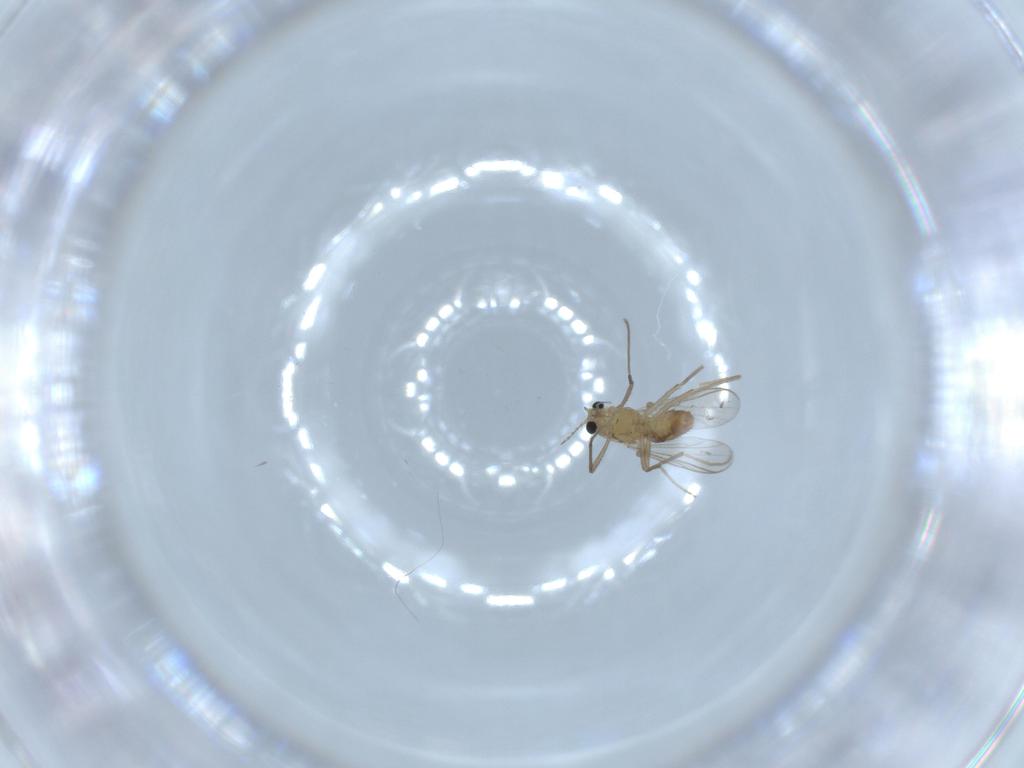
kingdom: Animalia
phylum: Arthropoda
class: Insecta
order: Diptera
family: Chironomidae
